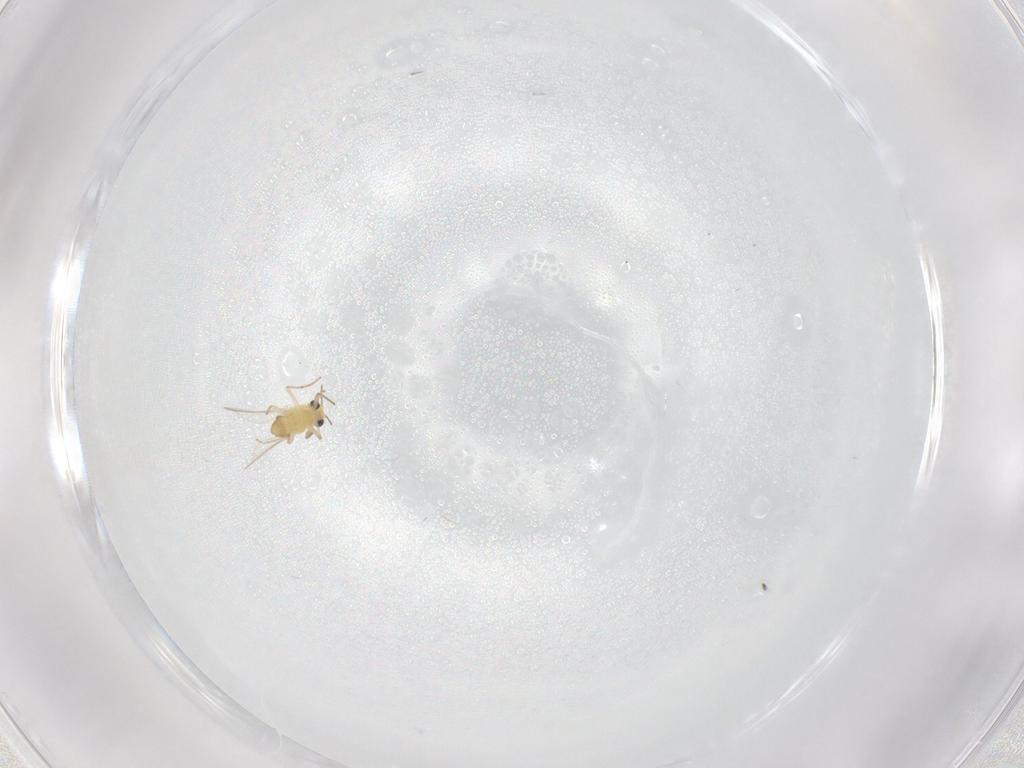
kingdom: Animalia
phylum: Arthropoda
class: Insecta
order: Diptera
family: Chironomidae
